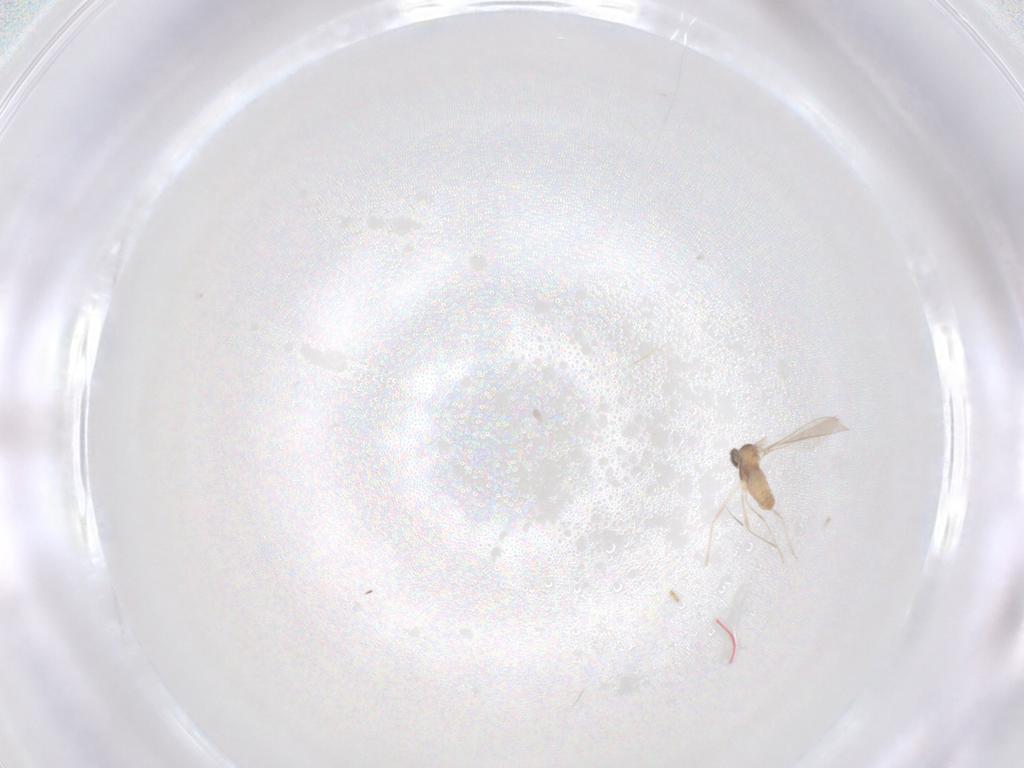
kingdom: Animalia
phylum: Arthropoda
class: Insecta
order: Diptera
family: Cecidomyiidae
